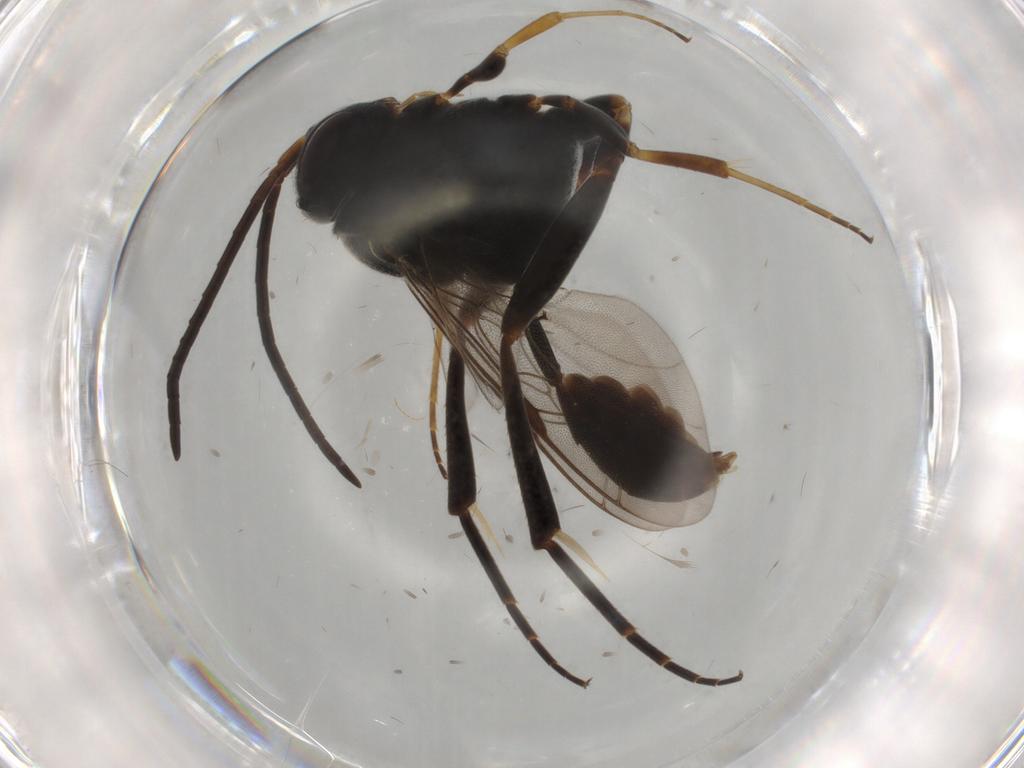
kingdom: Animalia
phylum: Arthropoda
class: Insecta
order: Hymenoptera
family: Evaniidae
